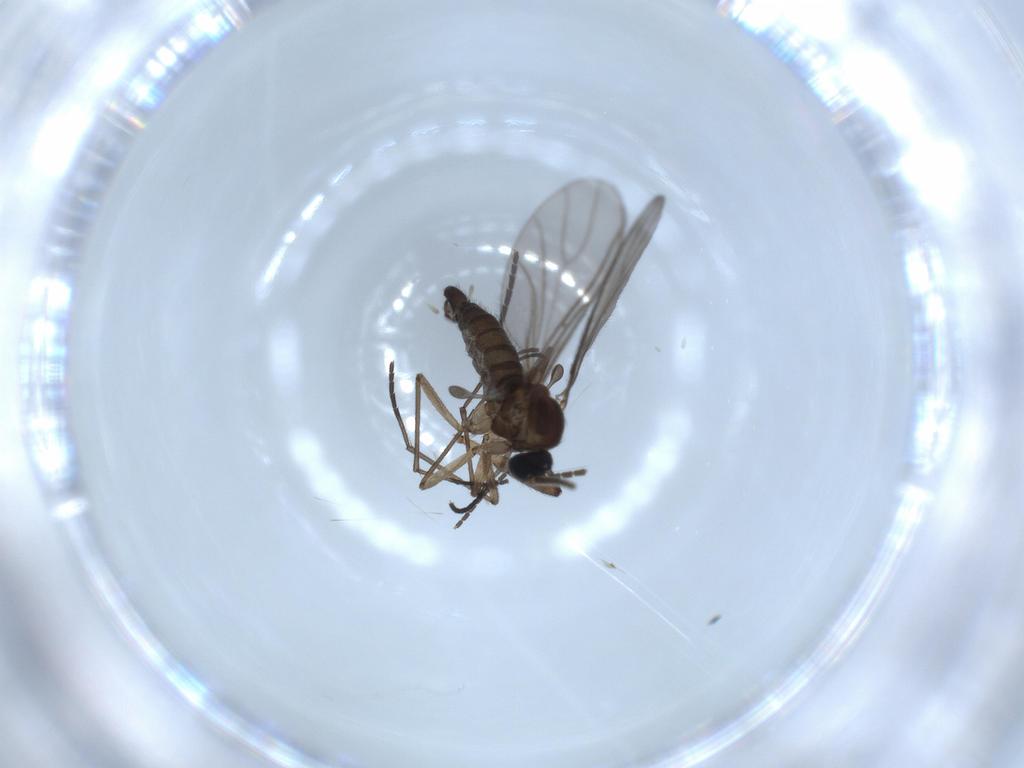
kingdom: Animalia
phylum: Arthropoda
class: Insecta
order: Diptera
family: Sciaridae
